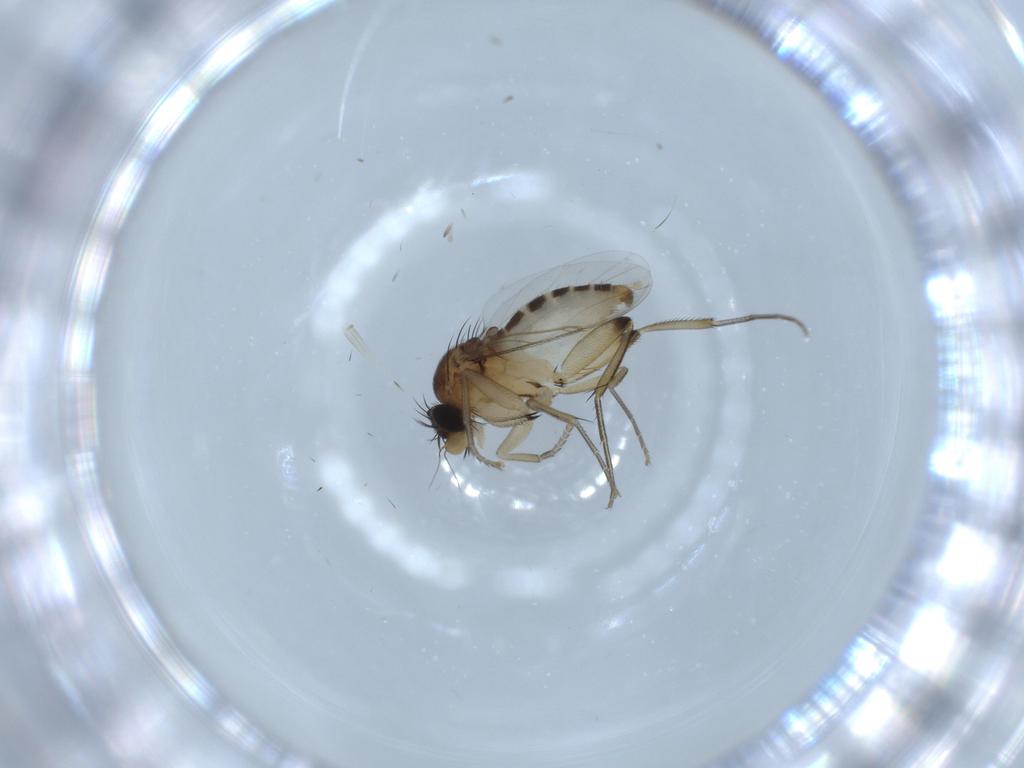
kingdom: Animalia
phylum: Arthropoda
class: Insecta
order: Diptera
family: Phoridae
